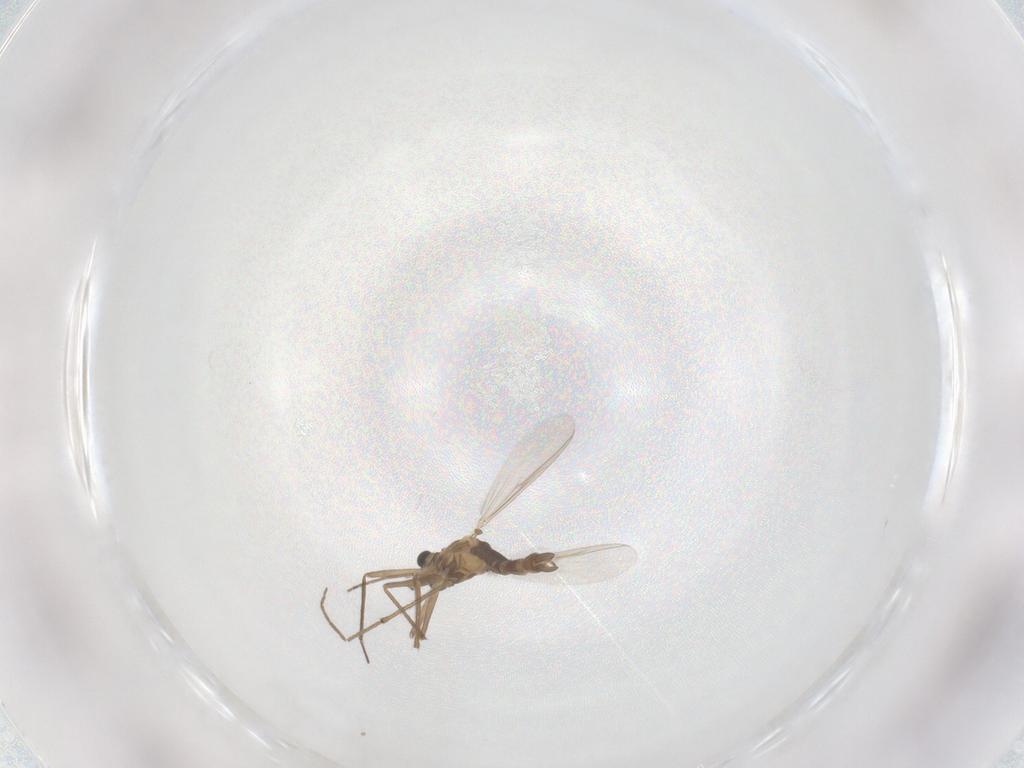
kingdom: Animalia
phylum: Arthropoda
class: Insecta
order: Diptera
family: Chironomidae
